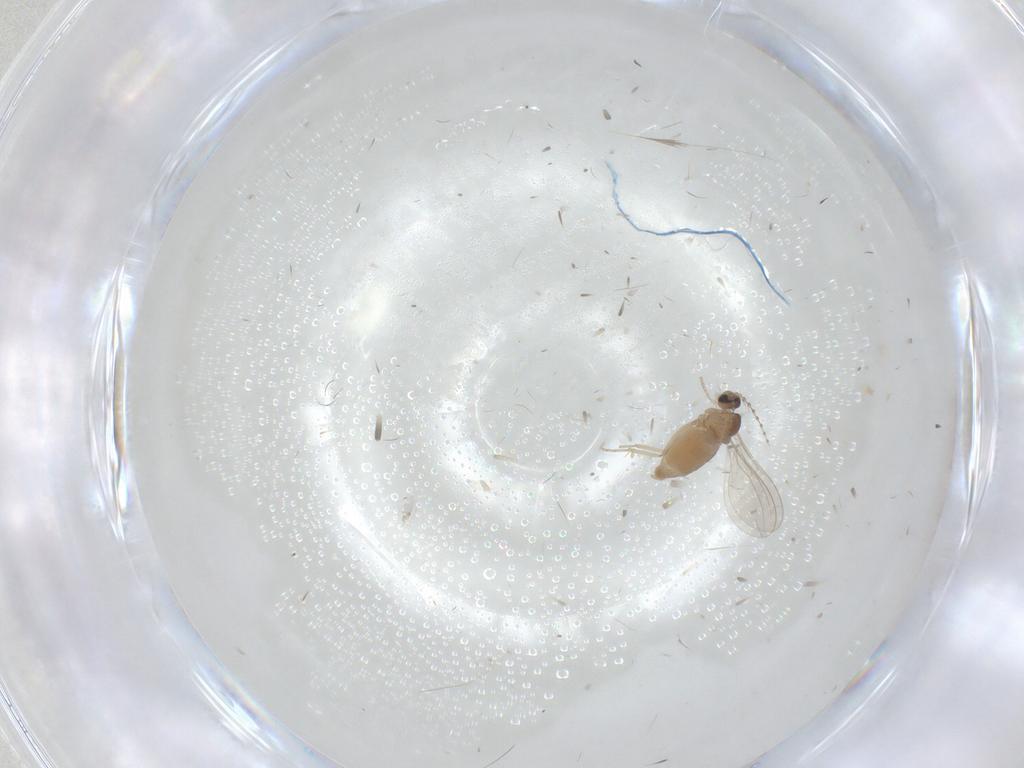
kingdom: Animalia
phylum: Arthropoda
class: Insecta
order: Diptera
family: Cecidomyiidae
